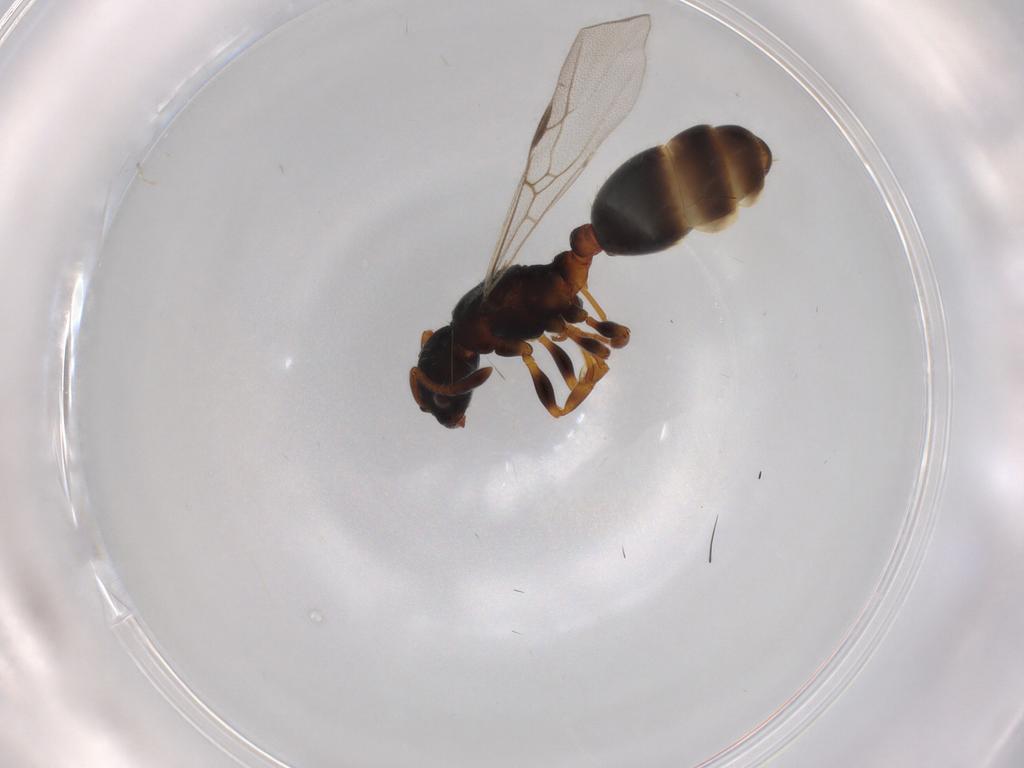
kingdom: Animalia
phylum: Arthropoda
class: Insecta
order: Hymenoptera
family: Formicidae
